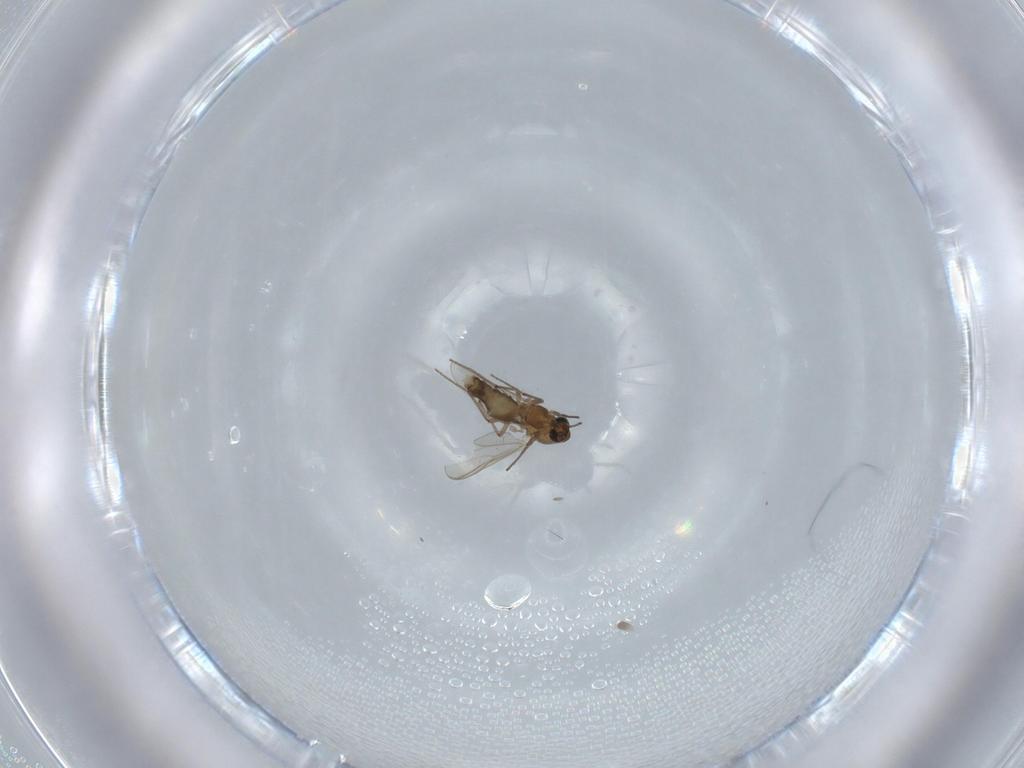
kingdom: Animalia
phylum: Arthropoda
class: Insecta
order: Diptera
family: Chironomidae
